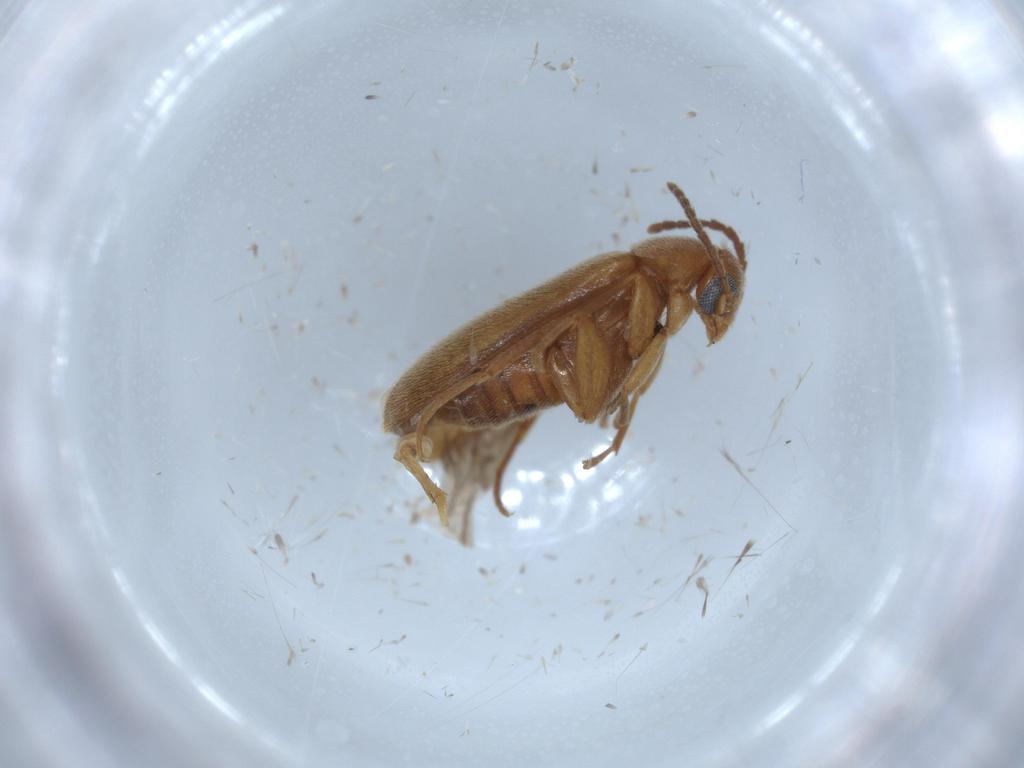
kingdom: Animalia
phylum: Arthropoda
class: Insecta
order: Coleoptera
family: Scraptiidae
